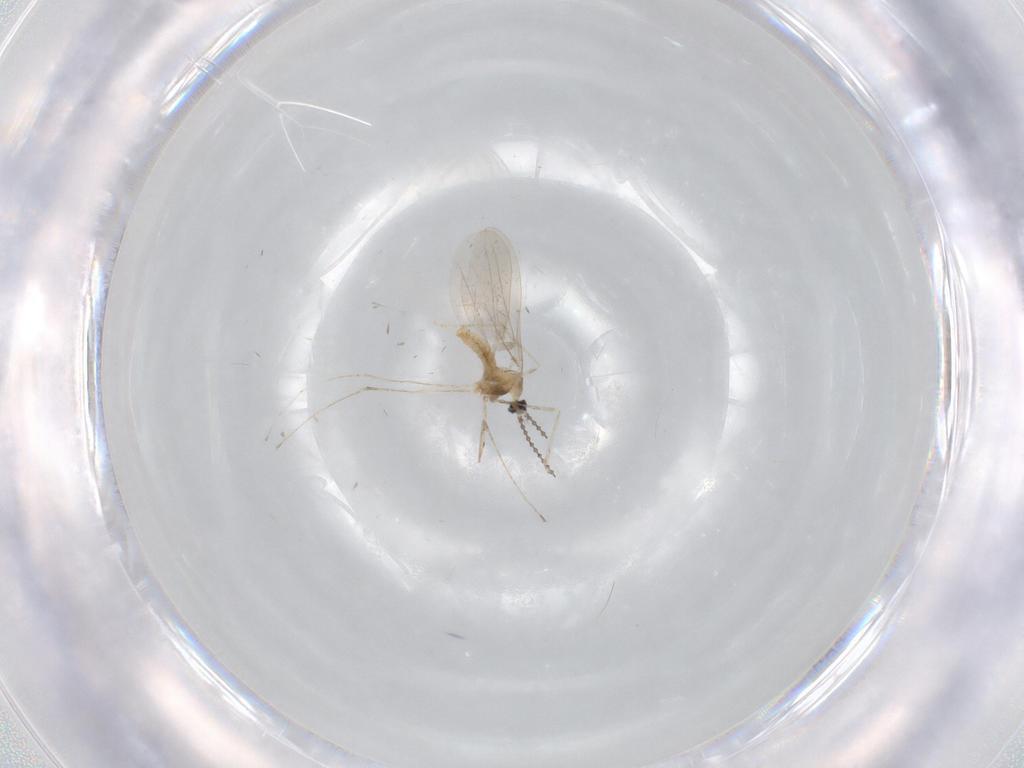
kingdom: Animalia
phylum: Arthropoda
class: Insecta
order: Diptera
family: Cecidomyiidae
